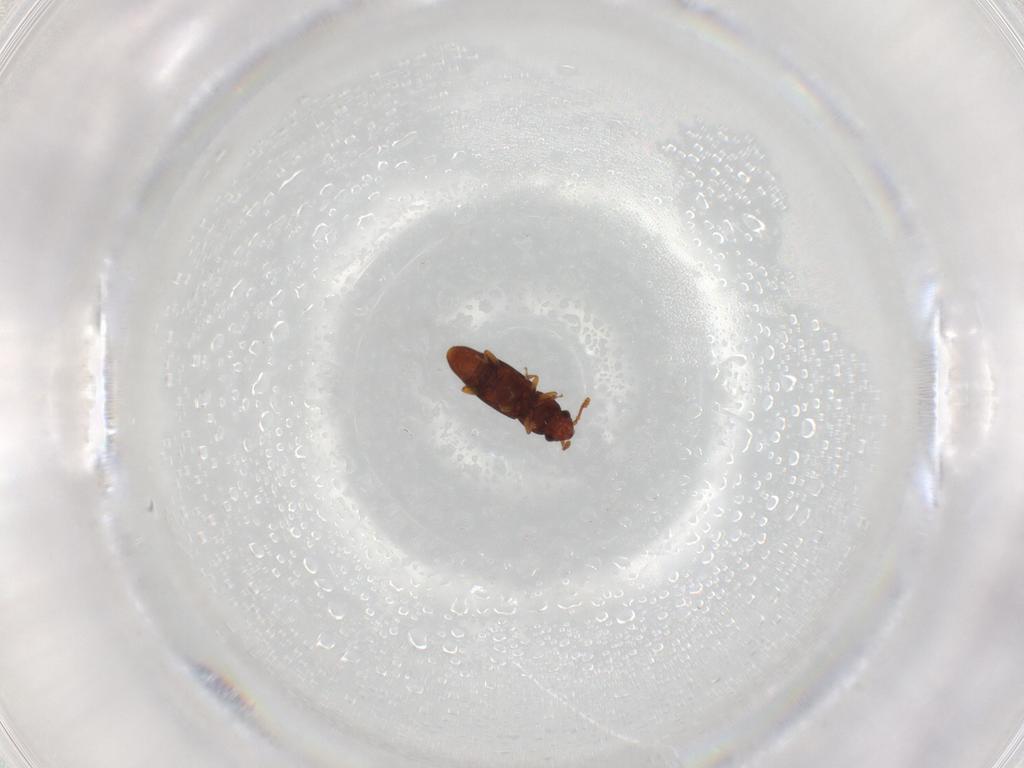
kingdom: Animalia
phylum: Arthropoda
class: Insecta
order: Coleoptera
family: Smicripidae
